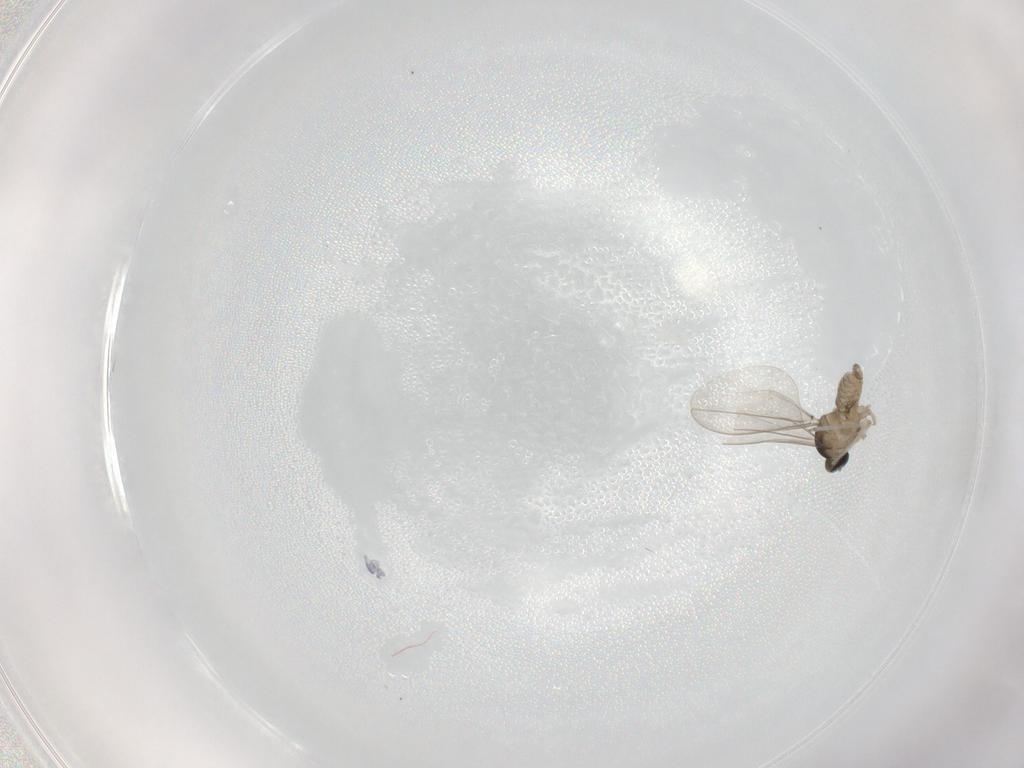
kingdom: Animalia
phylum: Arthropoda
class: Insecta
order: Diptera
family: Cecidomyiidae
